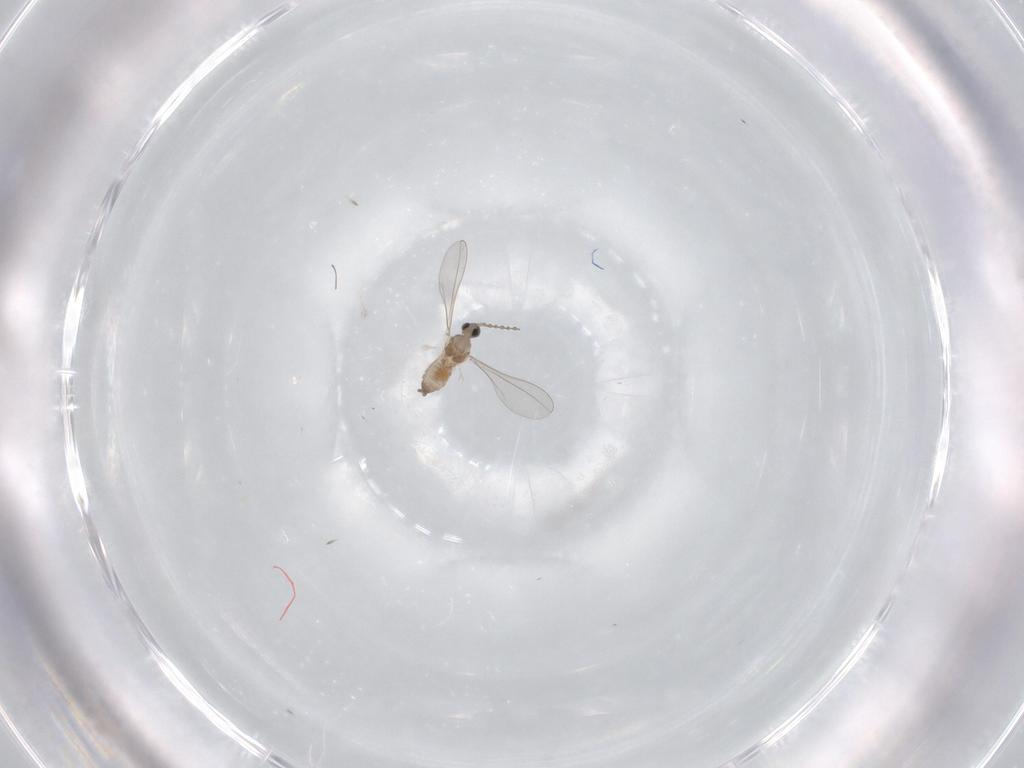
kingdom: Animalia
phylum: Arthropoda
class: Insecta
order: Diptera
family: Cecidomyiidae
